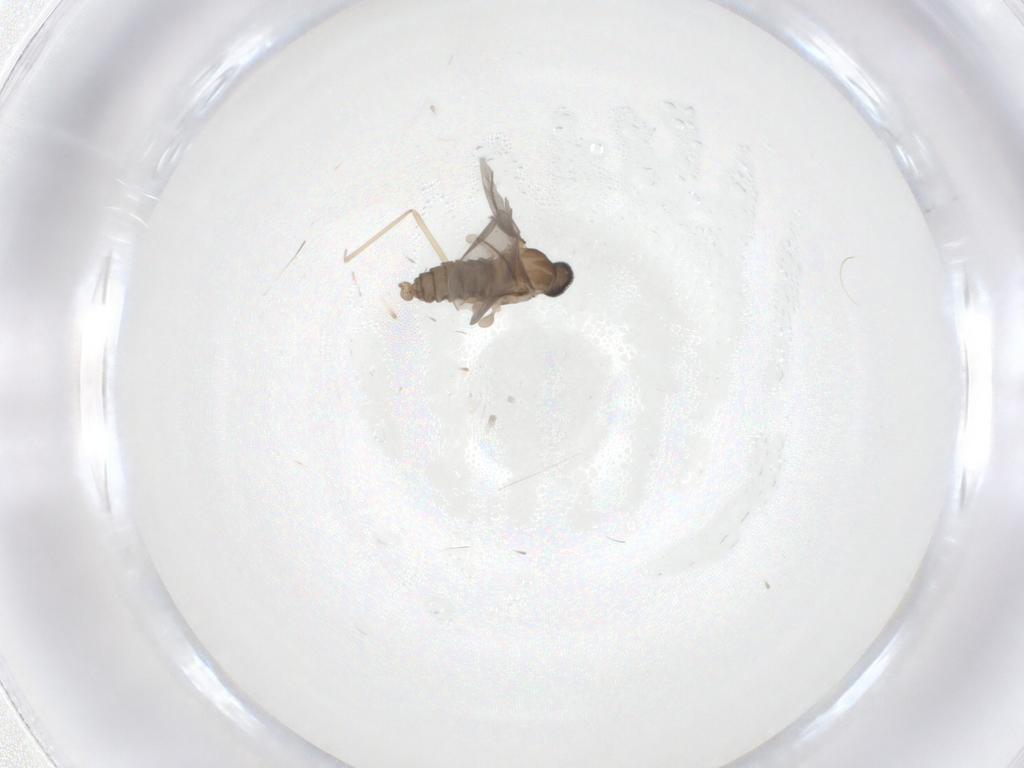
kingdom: Animalia
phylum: Arthropoda
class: Insecta
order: Diptera
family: Cecidomyiidae
